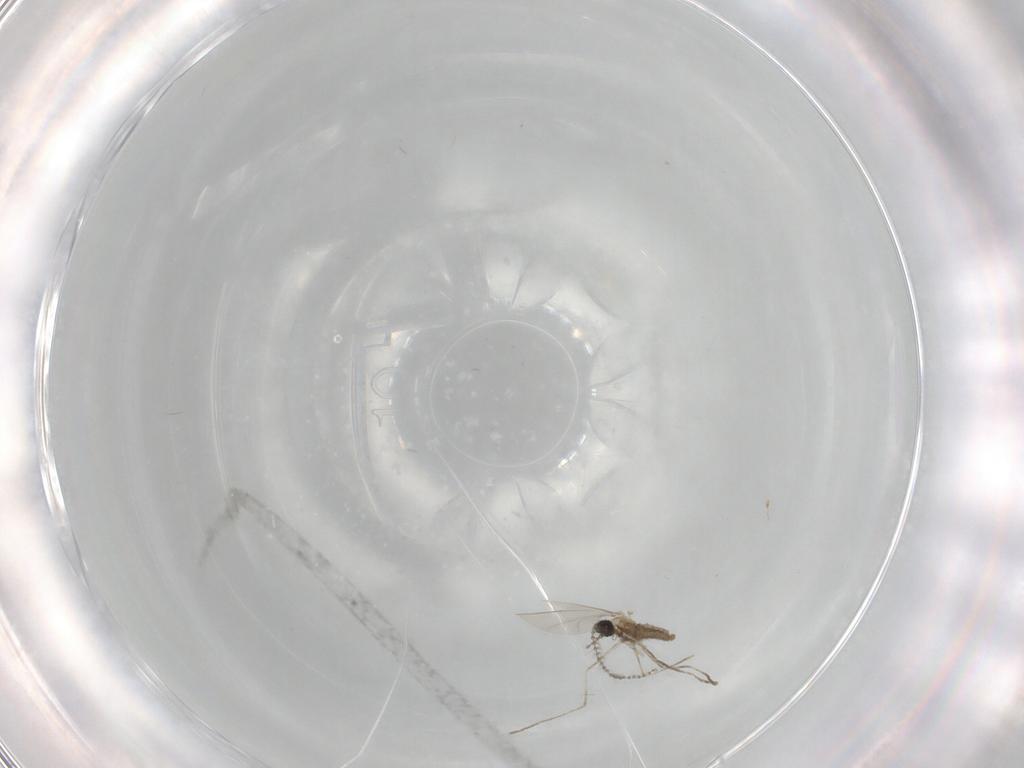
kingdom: Animalia
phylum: Arthropoda
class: Insecta
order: Diptera
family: Cecidomyiidae
